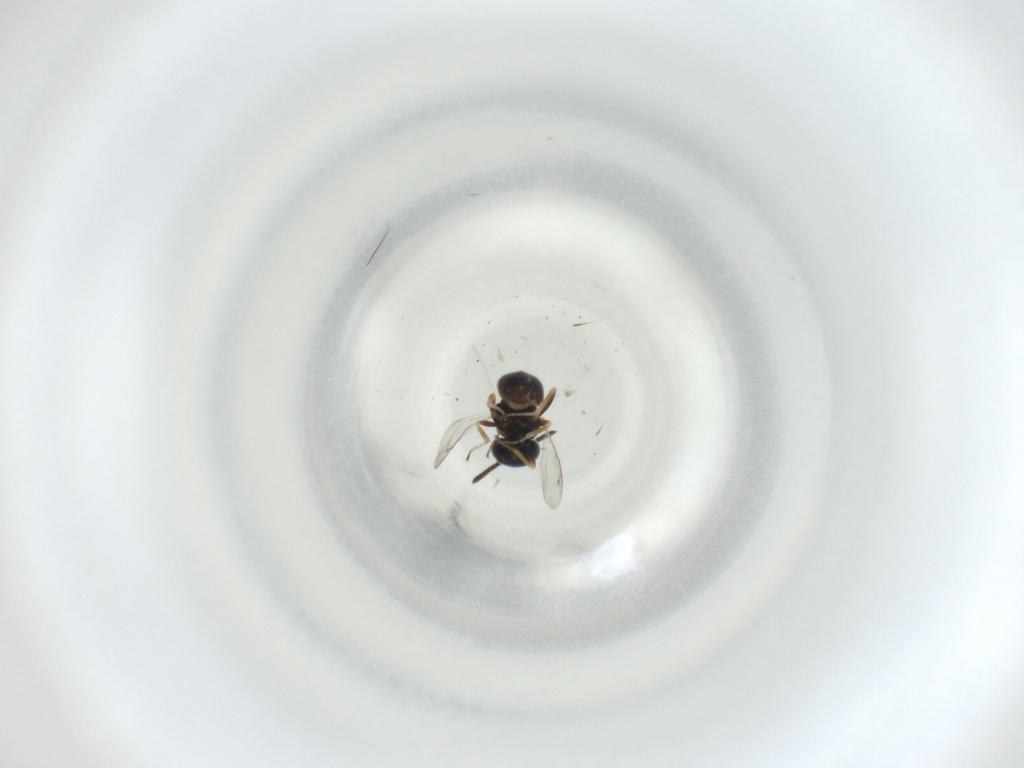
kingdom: Animalia
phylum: Arthropoda
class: Insecta
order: Hymenoptera
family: Pteromalidae
